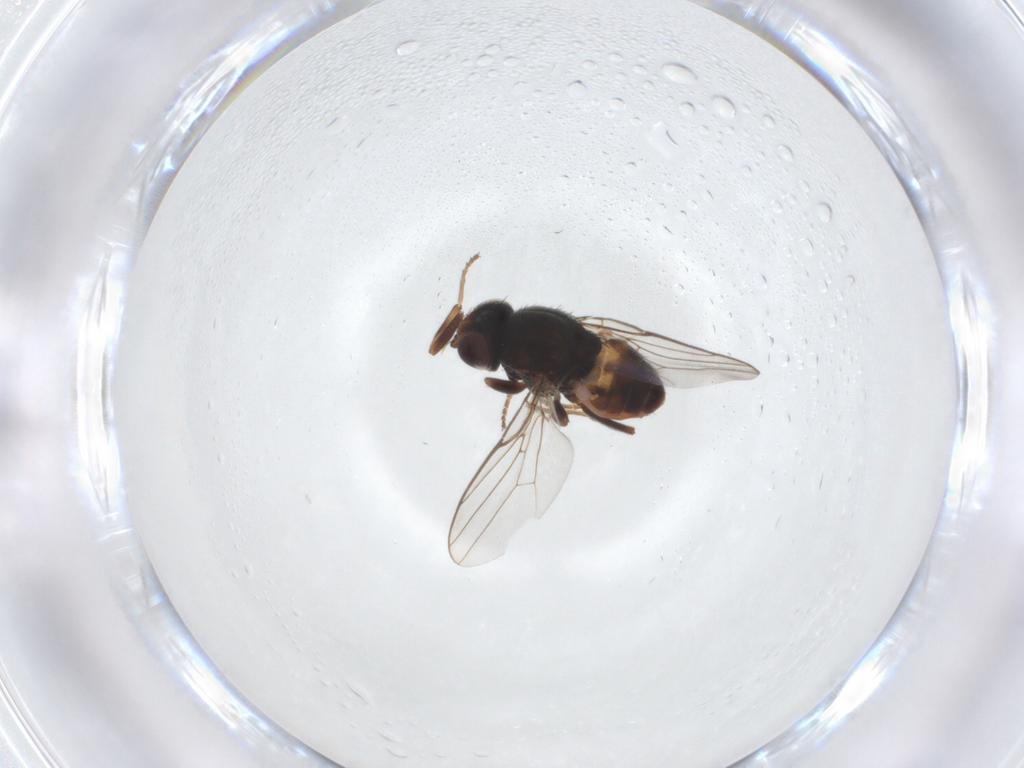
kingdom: Animalia
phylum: Arthropoda
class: Insecta
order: Diptera
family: Chloropidae
